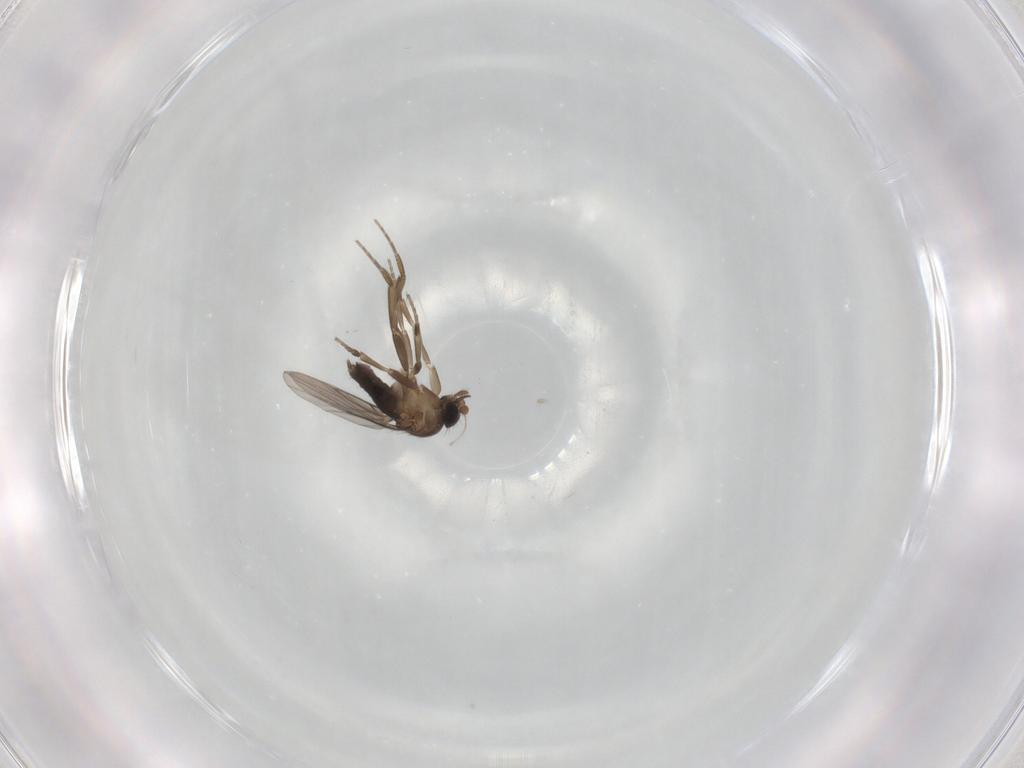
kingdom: Animalia
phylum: Arthropoda
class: Insecta
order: Diptera
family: Phoridae
